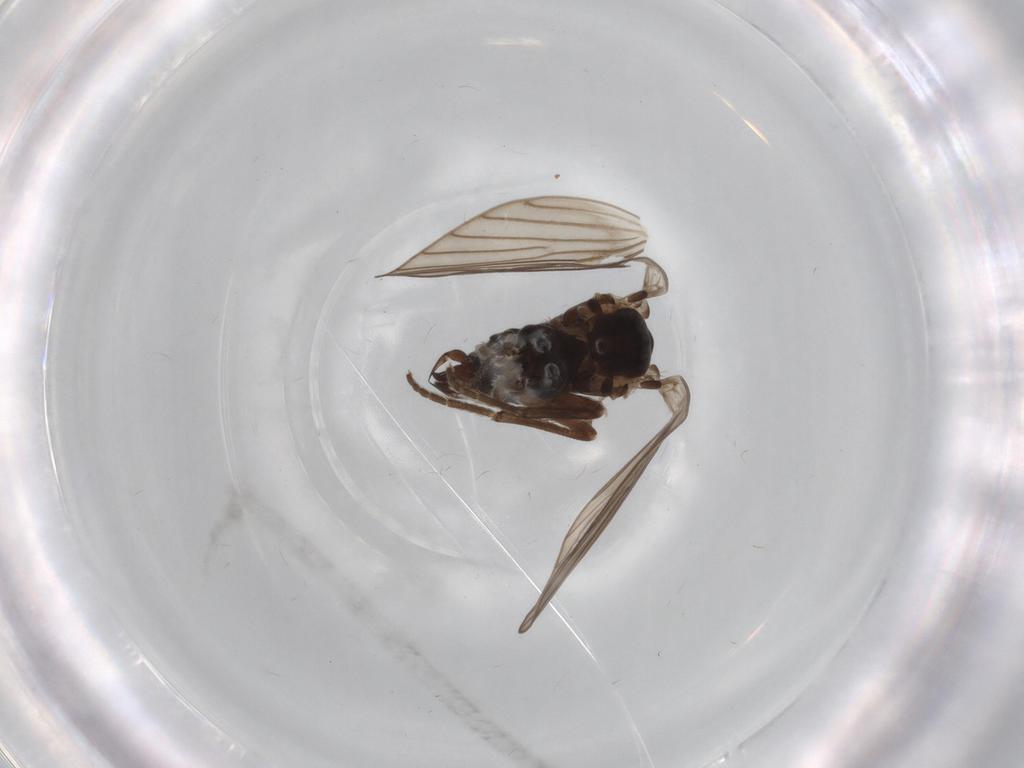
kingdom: Animalia
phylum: Arthropoda
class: Insecta
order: Diptera
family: Psychodidae
